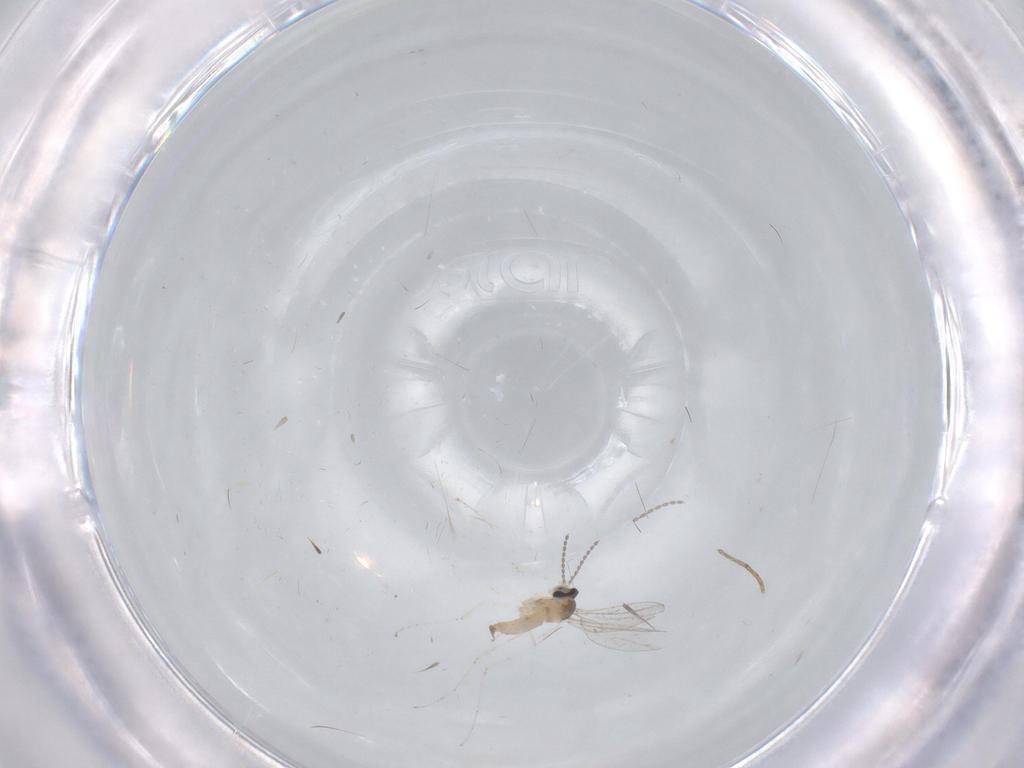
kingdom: Animalia
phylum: Arthropoda
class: Insecta
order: Diptera
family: Cecidomyiidae
